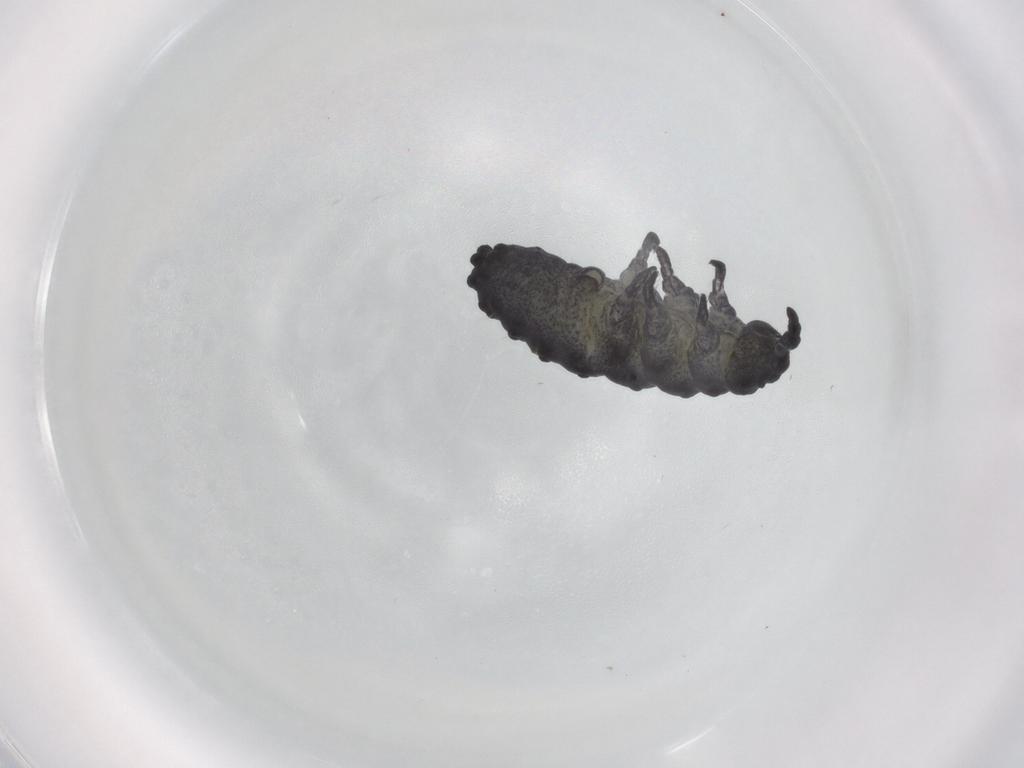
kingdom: Animalia
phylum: Arthropoda
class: Collembola
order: Poduromorpha
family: Neanuridae
